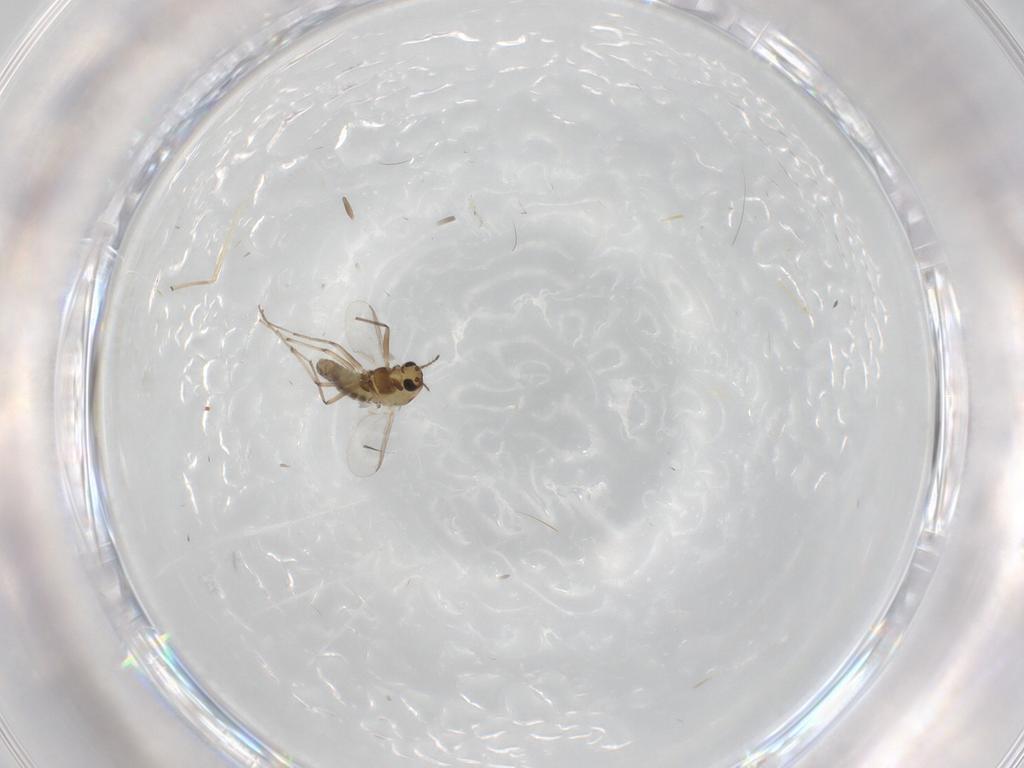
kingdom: Animalia
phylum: Arthropoda
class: Insecta
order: Diptera
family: Chironomidae
